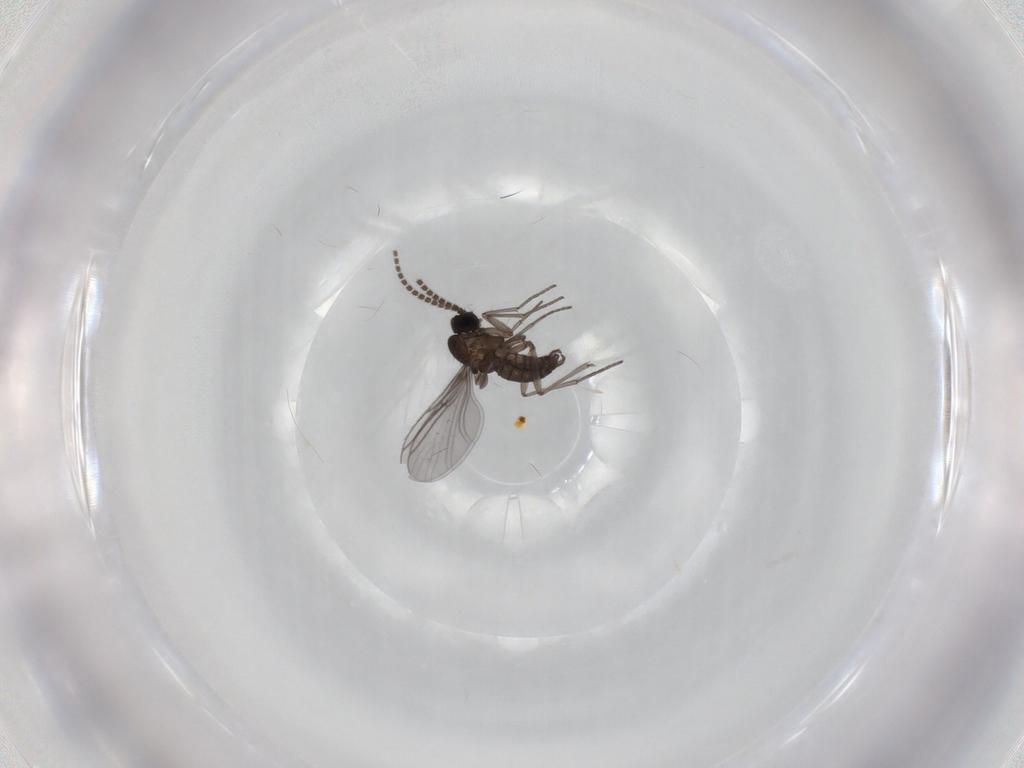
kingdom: Animalia
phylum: Arthropoda
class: Insecta
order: Diptera
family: Sciaridae
